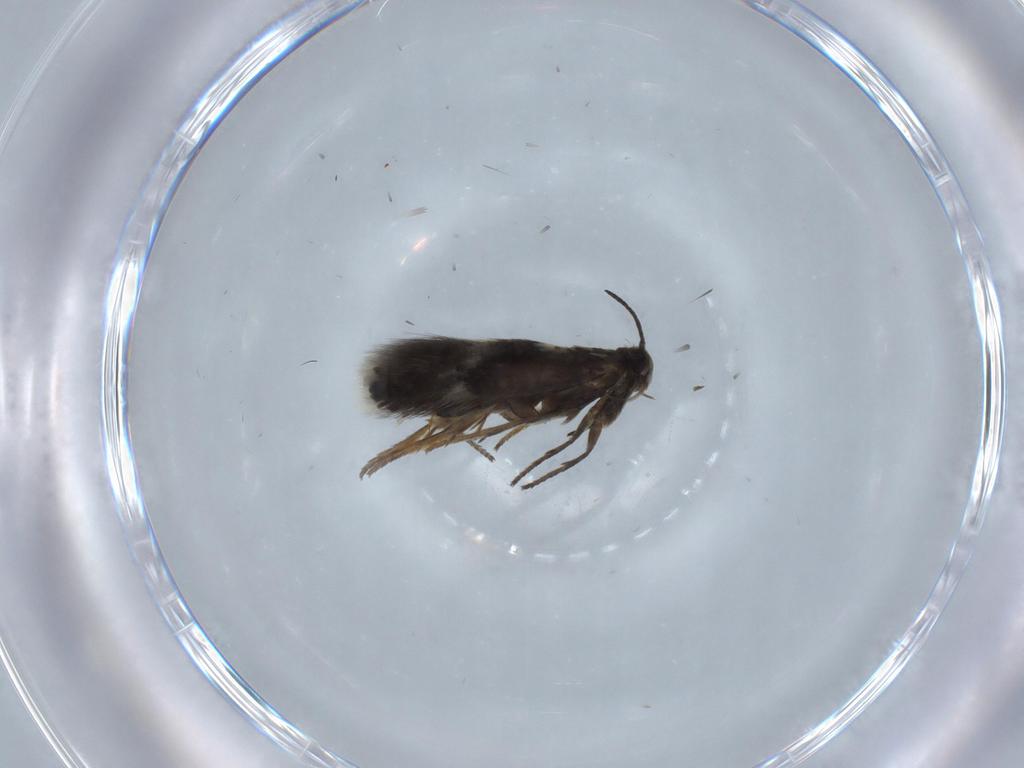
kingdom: Animalia
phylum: Arthropoda
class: Insecta
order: Lepidoptera
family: Heliozelidae
